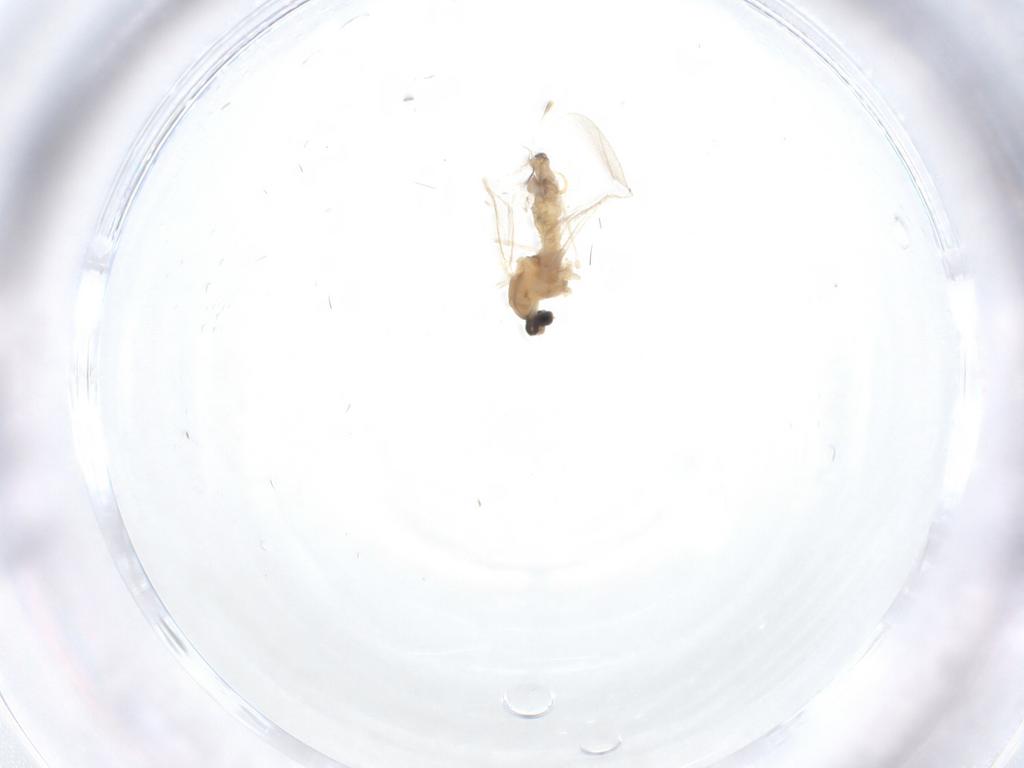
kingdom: Animalia
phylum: Arthropoda
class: Insecta
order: Diptera
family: Cecidomyiidae
